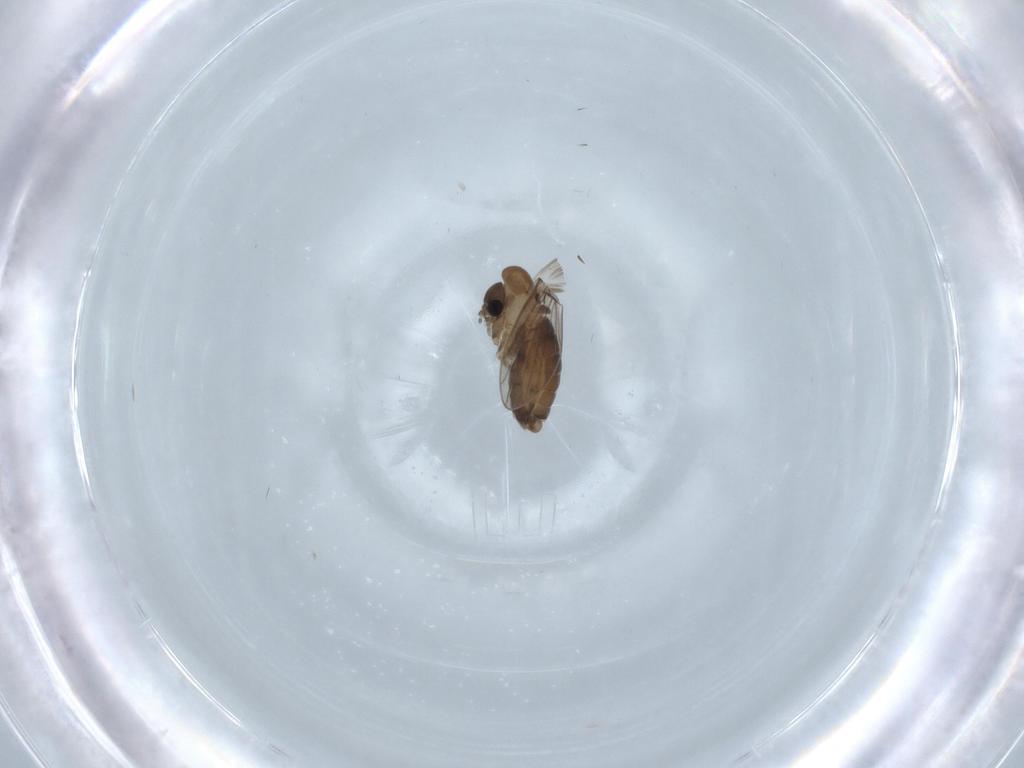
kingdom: Animalia
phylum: Arthropoda
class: Insecta
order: Diptera
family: Psychodidae
